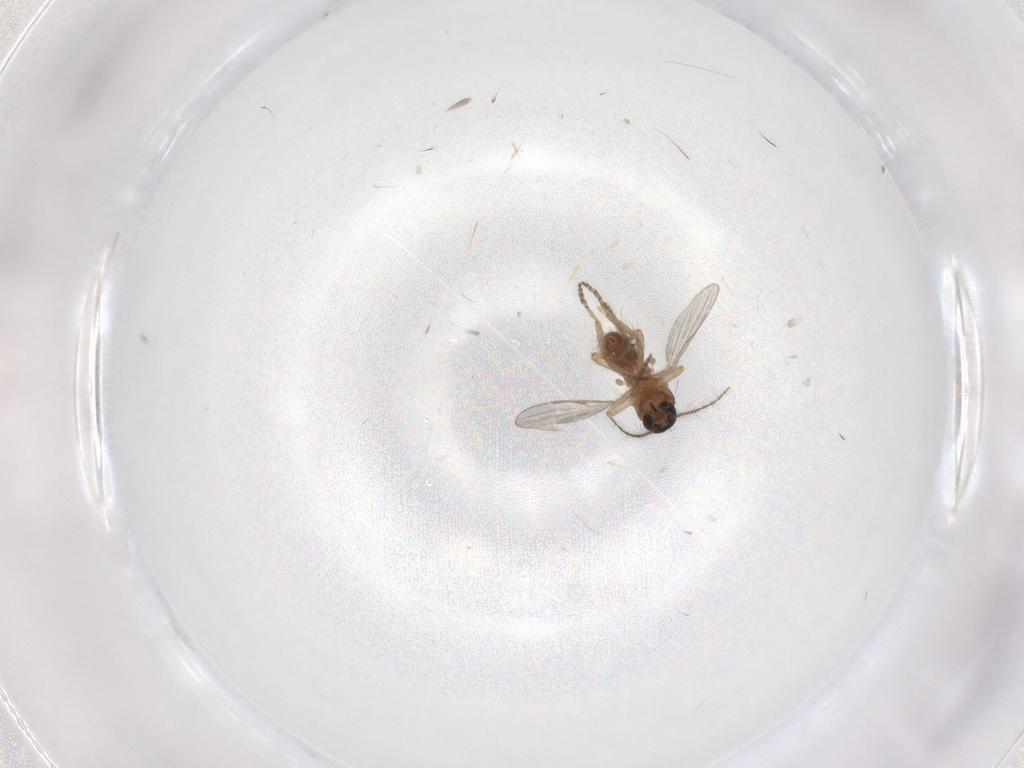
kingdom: Animalia
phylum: Arthropoda
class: Insecta
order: Diptera
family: Ceratopogonidae
